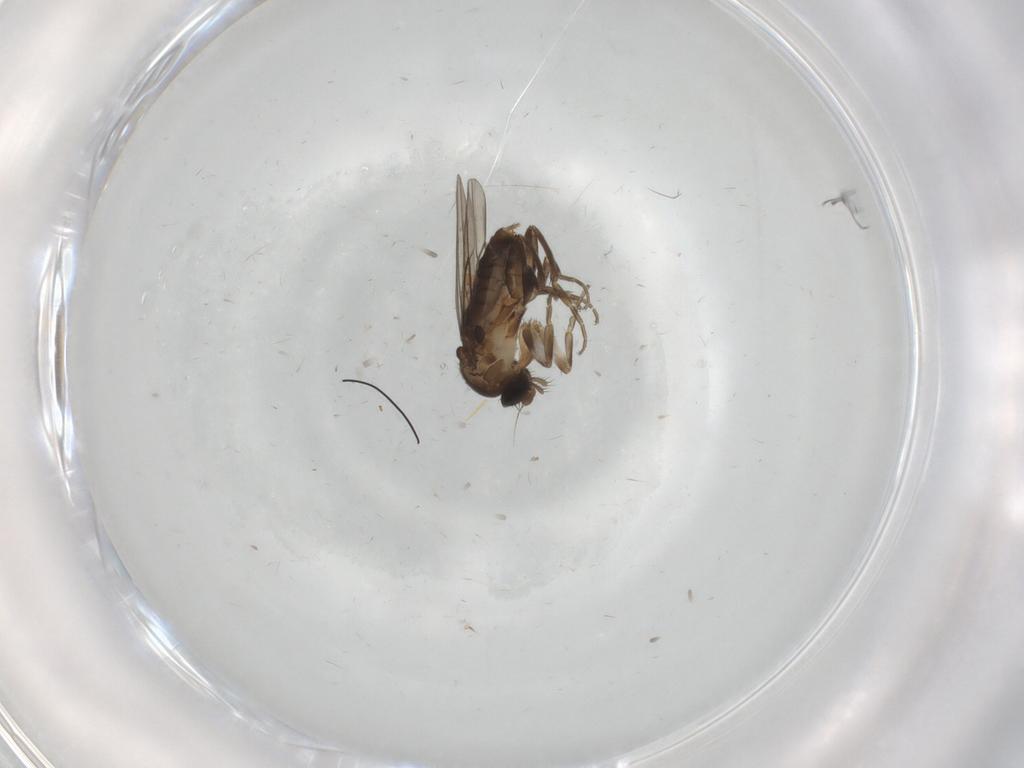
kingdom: Animalia
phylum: Arthropoda
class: Insecta
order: Diptera
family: Phoridae
